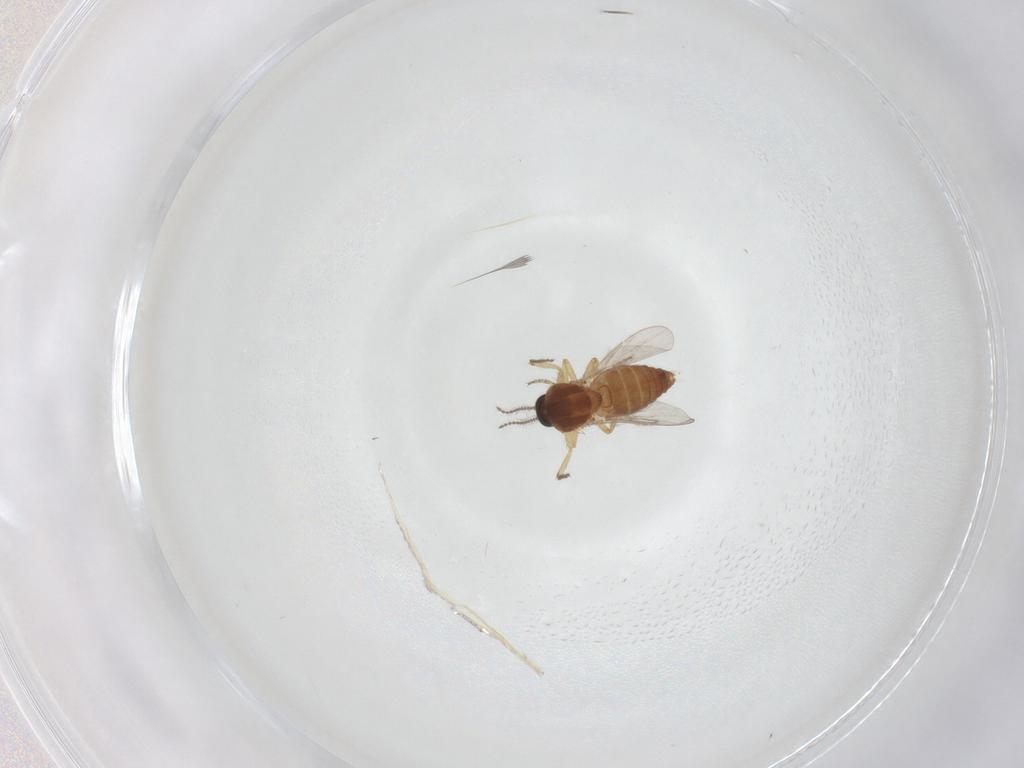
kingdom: Animalia
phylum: Arthropoda
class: Insecta
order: Diptera
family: Ceratopogonidae
